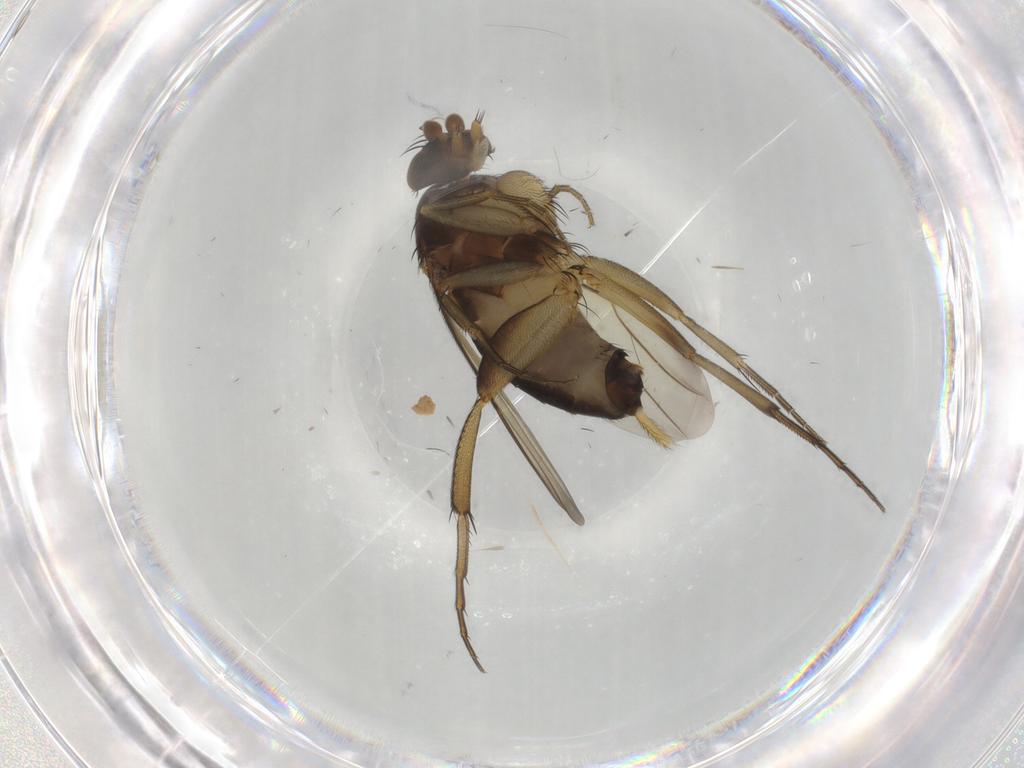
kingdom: Animalia
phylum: Arthropoda
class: Insecta
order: Diptera
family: Phoridae
